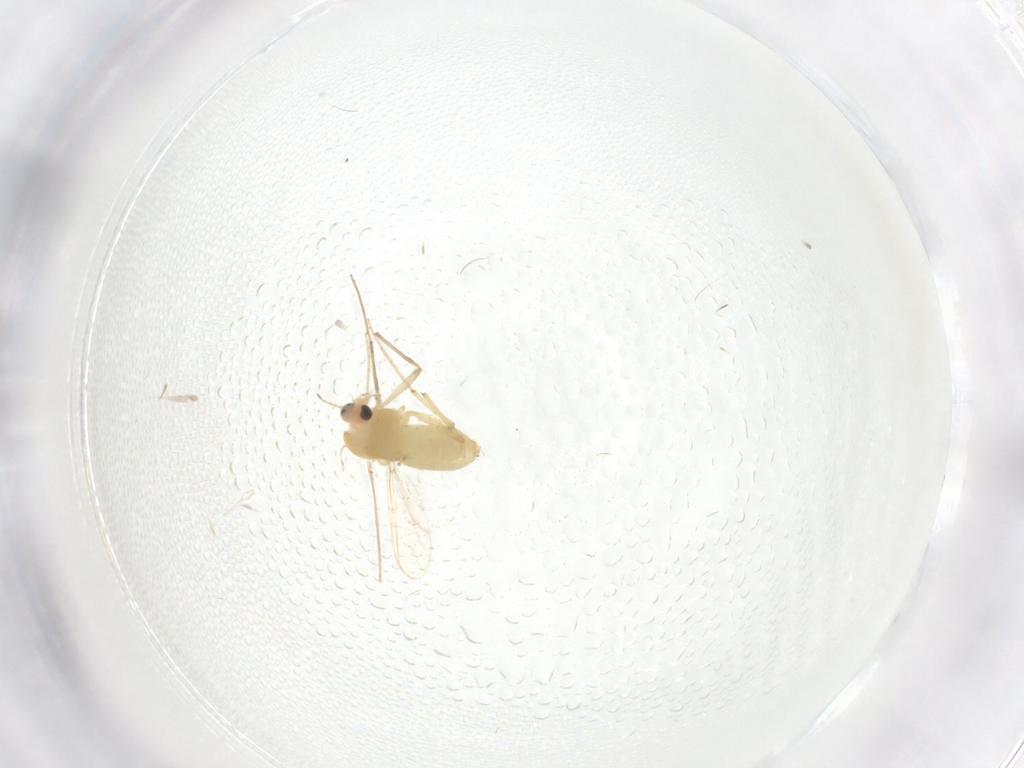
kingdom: Animalia
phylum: Arthropoda
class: Insecta
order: Diptera
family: Chironomidae
